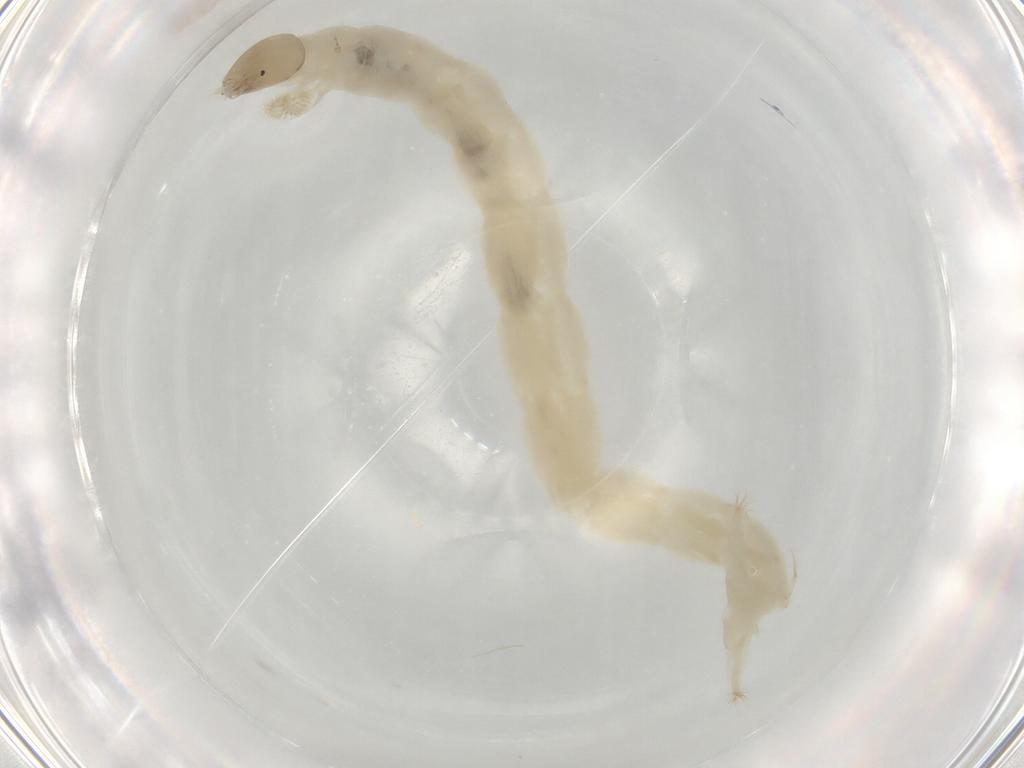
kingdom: Animalia
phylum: Arthropoda
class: Insecta
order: Diptera
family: Chironomidae
